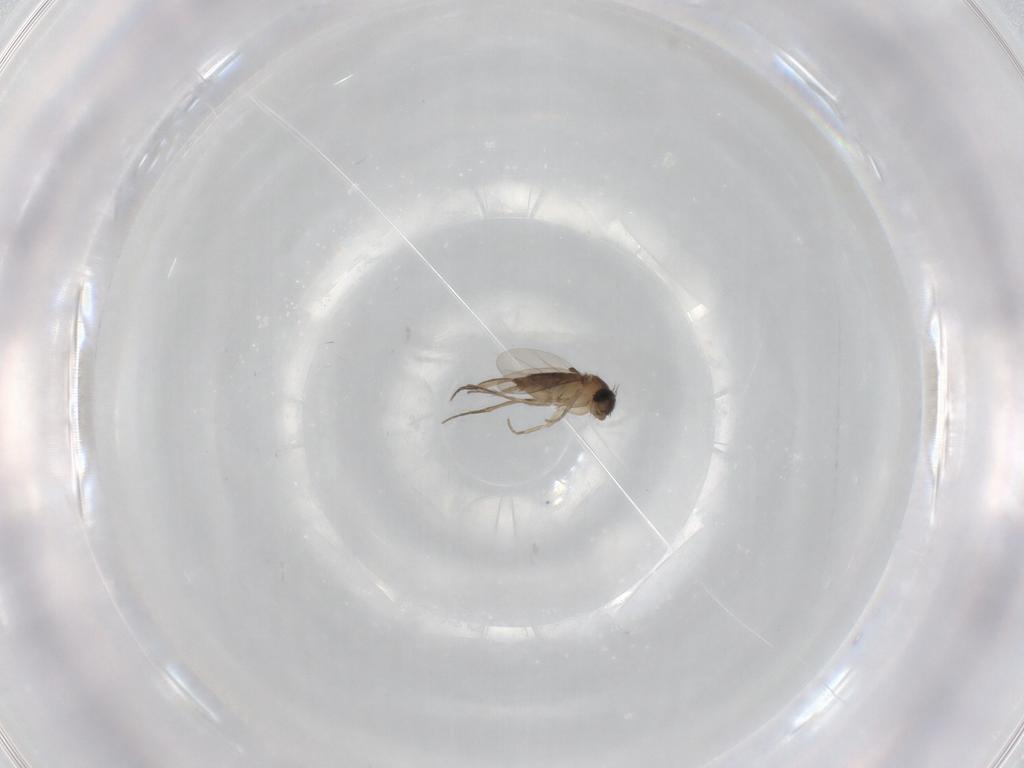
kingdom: Animalia
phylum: Arthropoda
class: Insecta
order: Diptera
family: Phoridae
